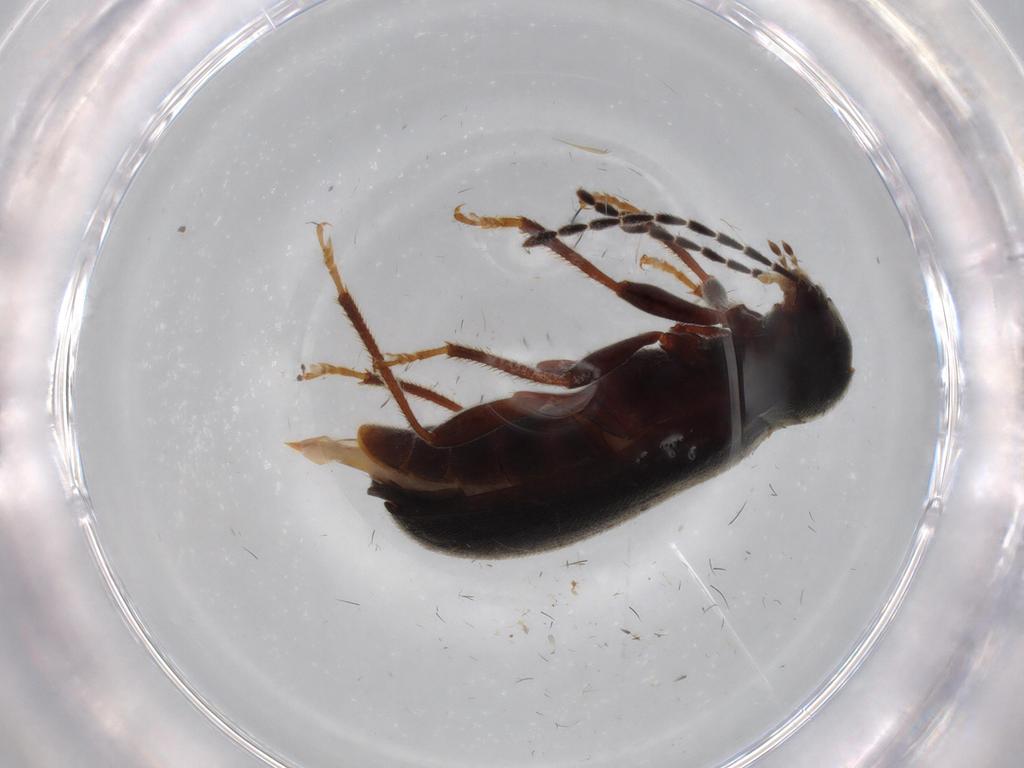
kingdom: Animalia
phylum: Arthropoda
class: Insecta
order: Coleoptera
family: Ptilodactylidae
